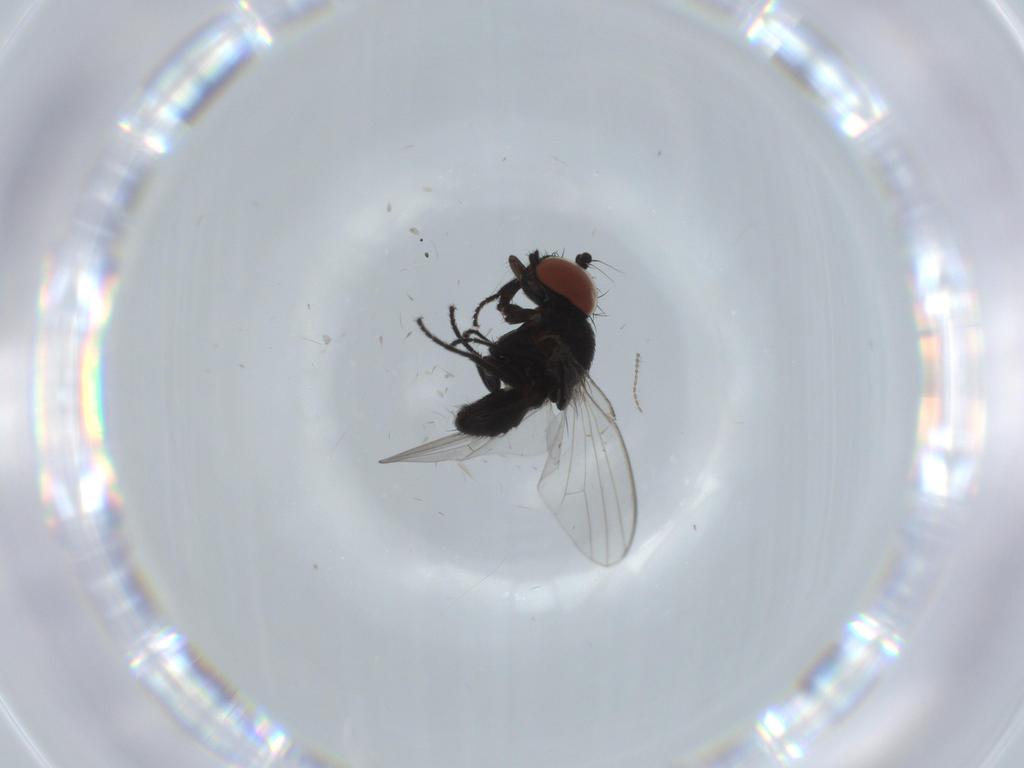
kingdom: Animalia
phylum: Arthropoda
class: Insecta
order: Diptera
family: Milichiidae
